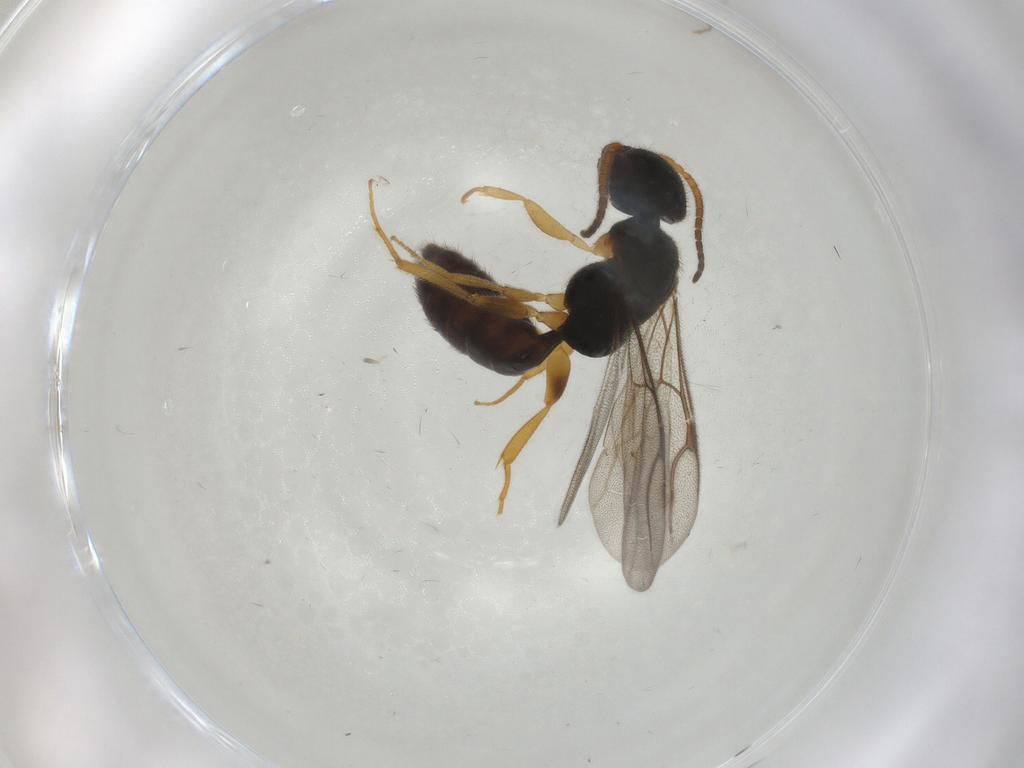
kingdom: Animalia
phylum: Arthropoda
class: Insecta
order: Hymenoptera
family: Bethylidae
